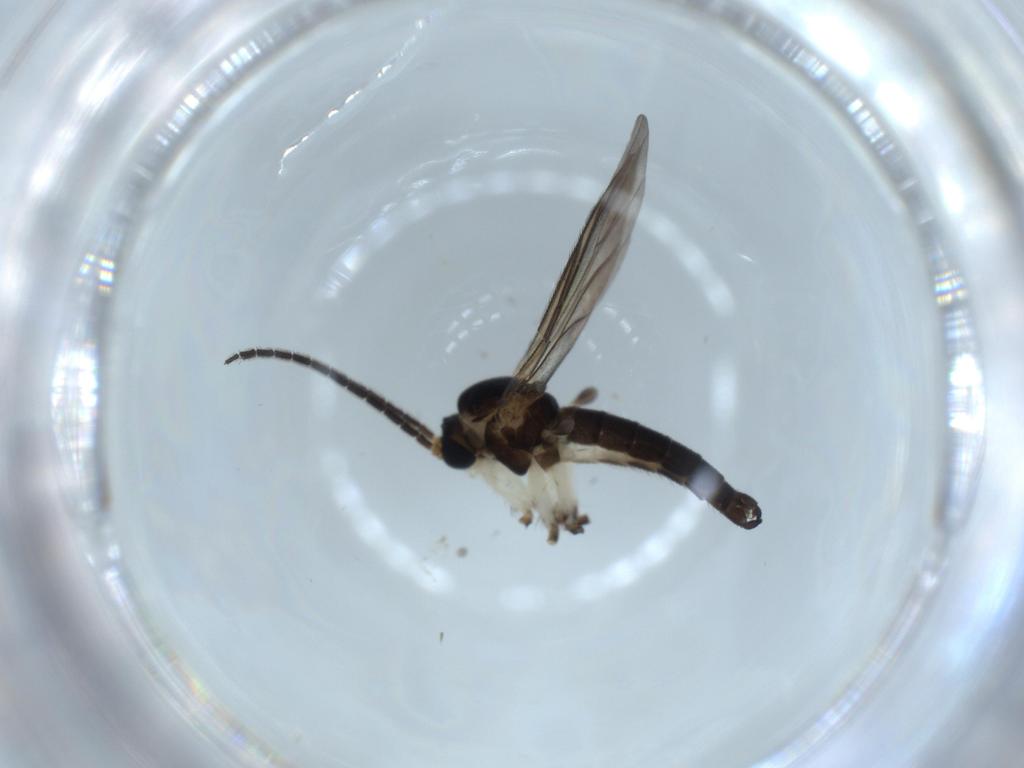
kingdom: Animalia
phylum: Arthropoda
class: Insecta
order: Diptera
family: Sciaridae
